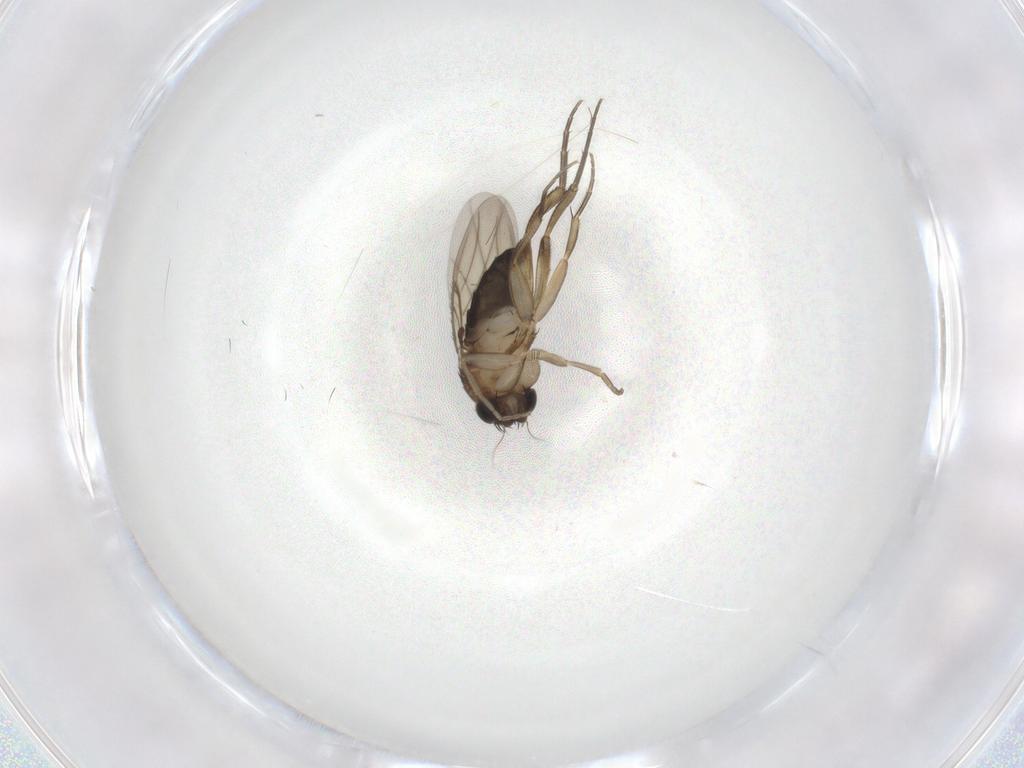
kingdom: Animalia
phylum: Arthropoda
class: Insecta
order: Diptera
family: Phoridae
